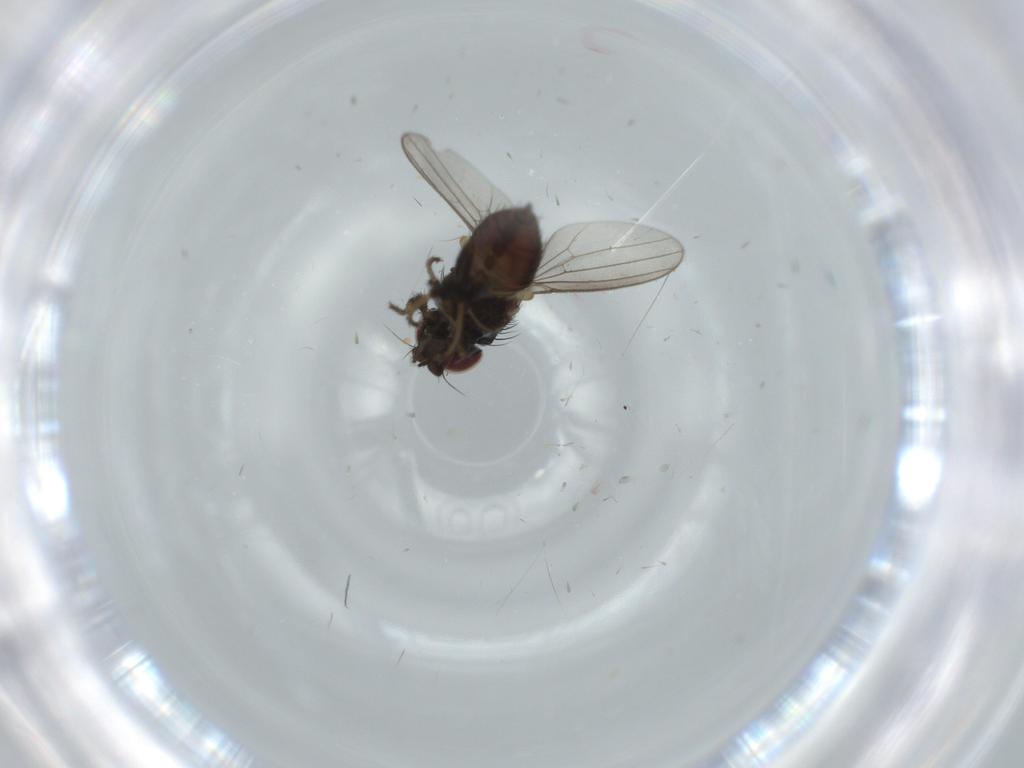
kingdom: Animalia
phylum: Arthropoda
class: Insecta
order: Diptera
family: Milichiidae
